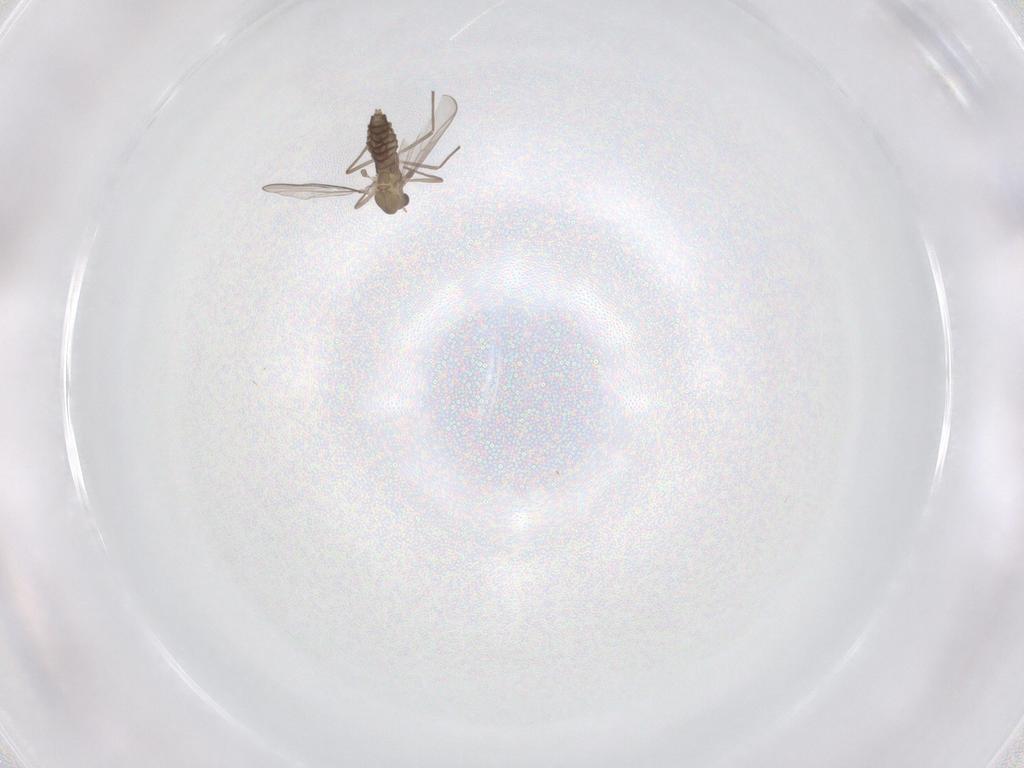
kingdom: Animalia
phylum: Arthropoda
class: Insecta
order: Diptera
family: Chironomidae
